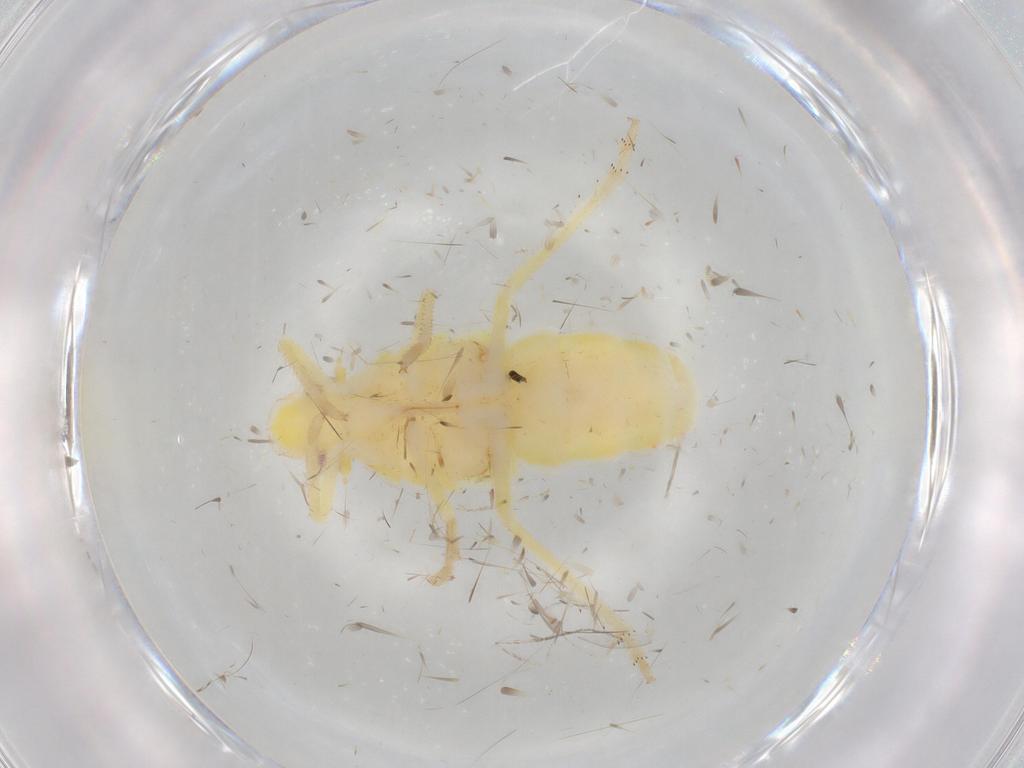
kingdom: Animalia
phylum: Arthropoda
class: Insecta
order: Hemiptera
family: Tropiduchidae
